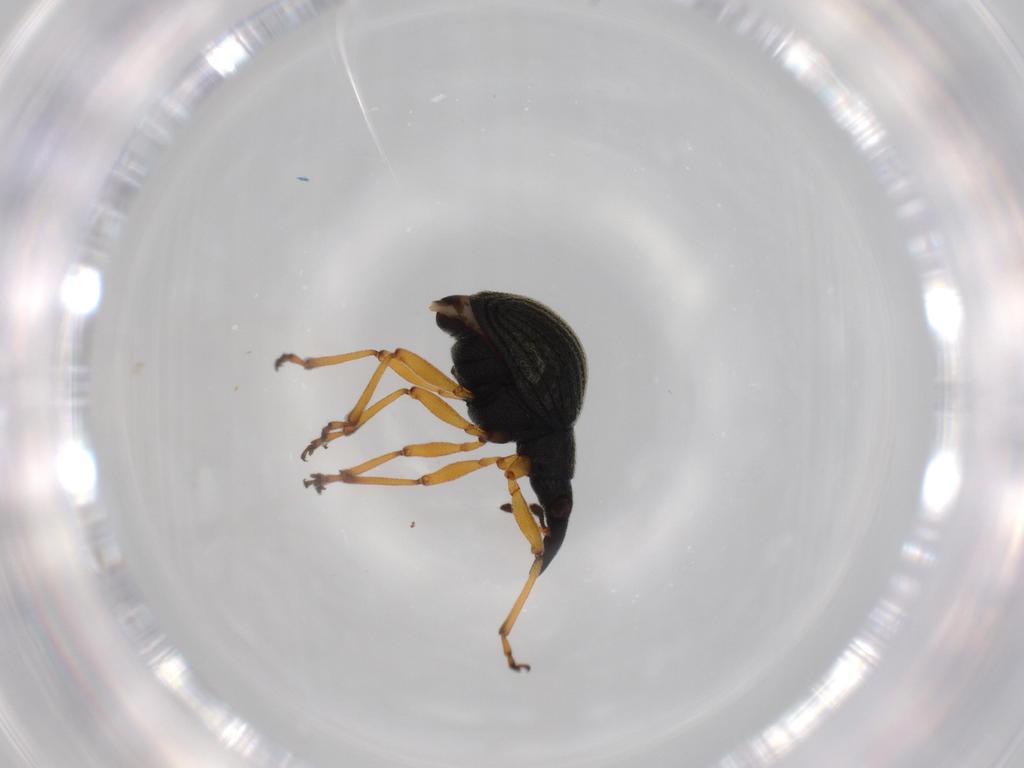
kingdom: Animalia
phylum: Arthropoda
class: Insecta
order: Coleoptera
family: Brentidae
